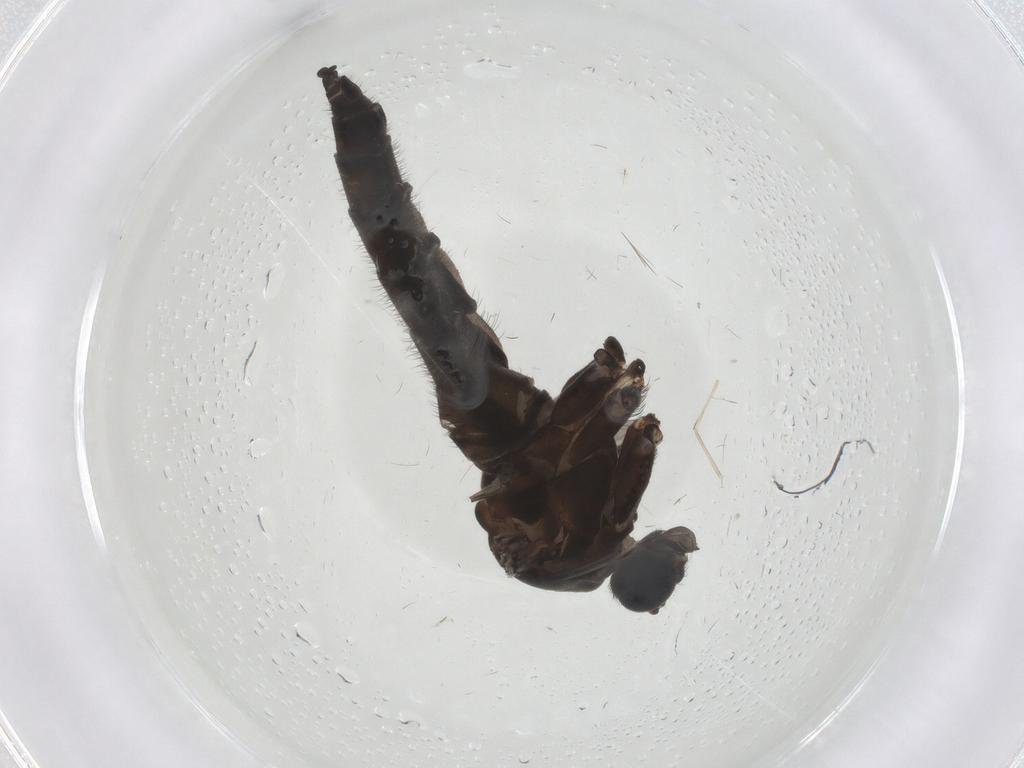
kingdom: Animalia
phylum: Arthropoda
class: Insecta
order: Diptera
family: Sciaridae
